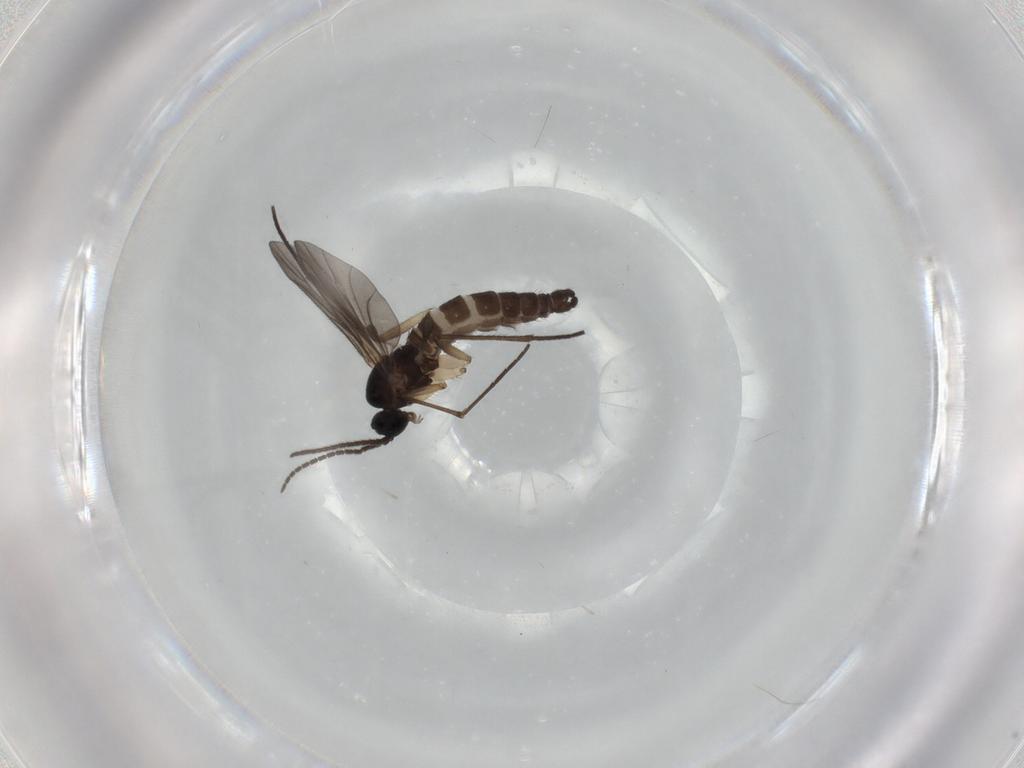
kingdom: Animalia
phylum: Arthropoda
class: Insecta
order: Diptera
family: Sciaridae
